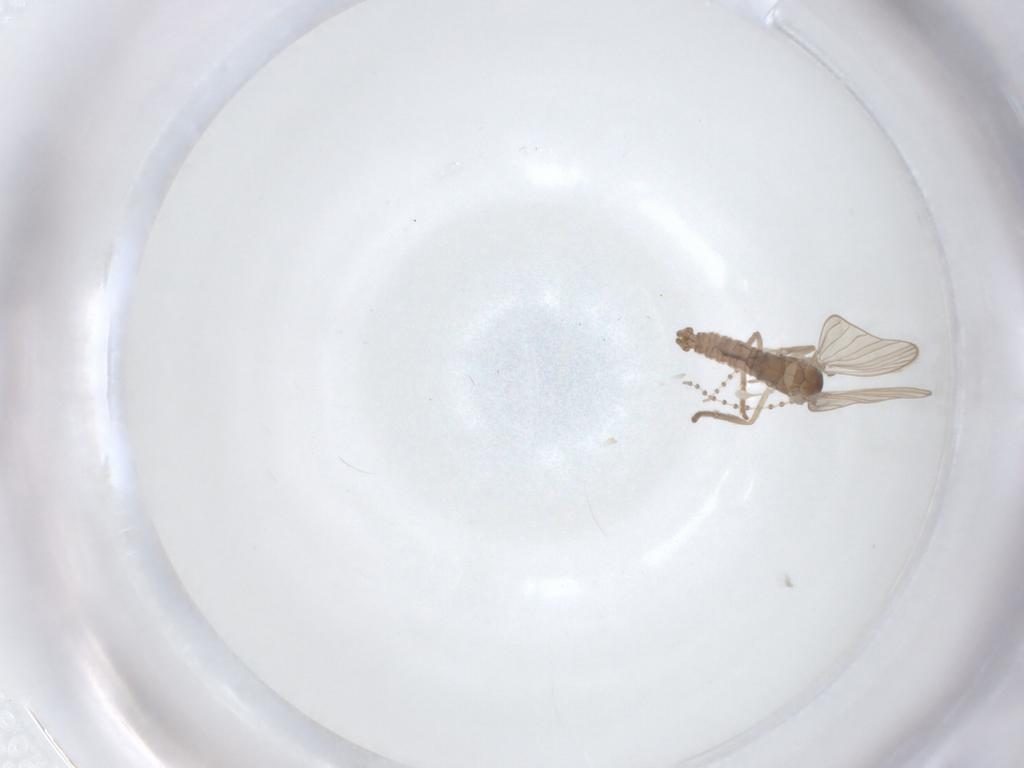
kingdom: Animalia
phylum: Arthropoda
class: Insecta
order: Diptera
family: Psychodidae
